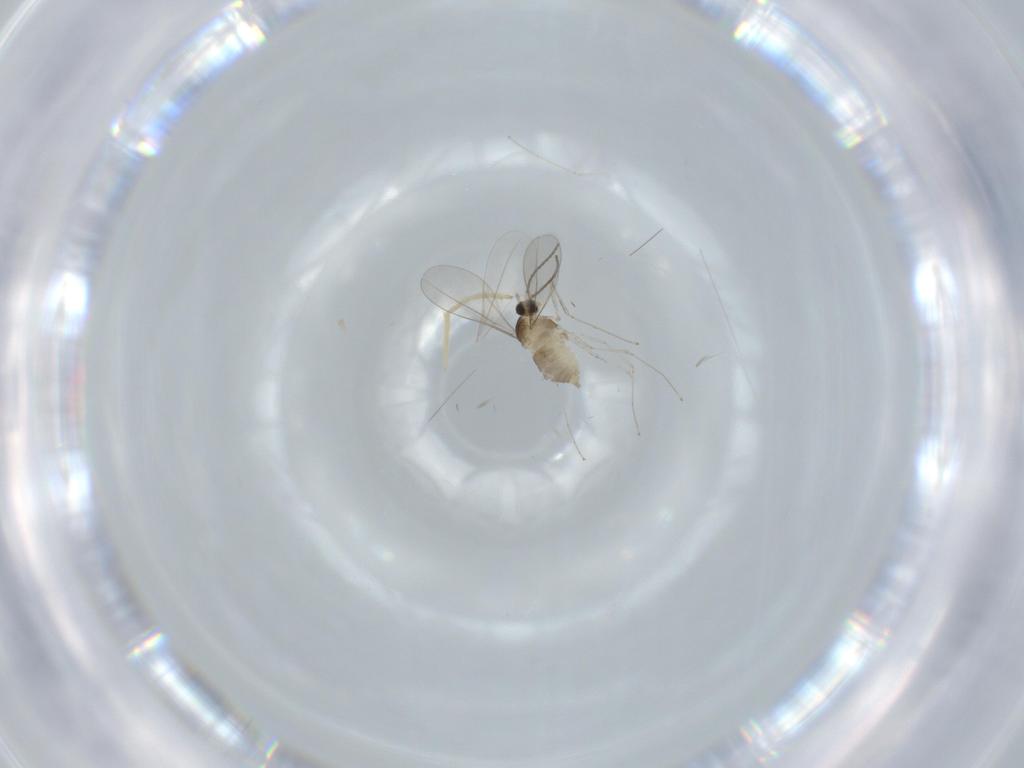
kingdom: Animalia
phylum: Arthropoda
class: Insecta
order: Diptera
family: Cecidomyiidae
